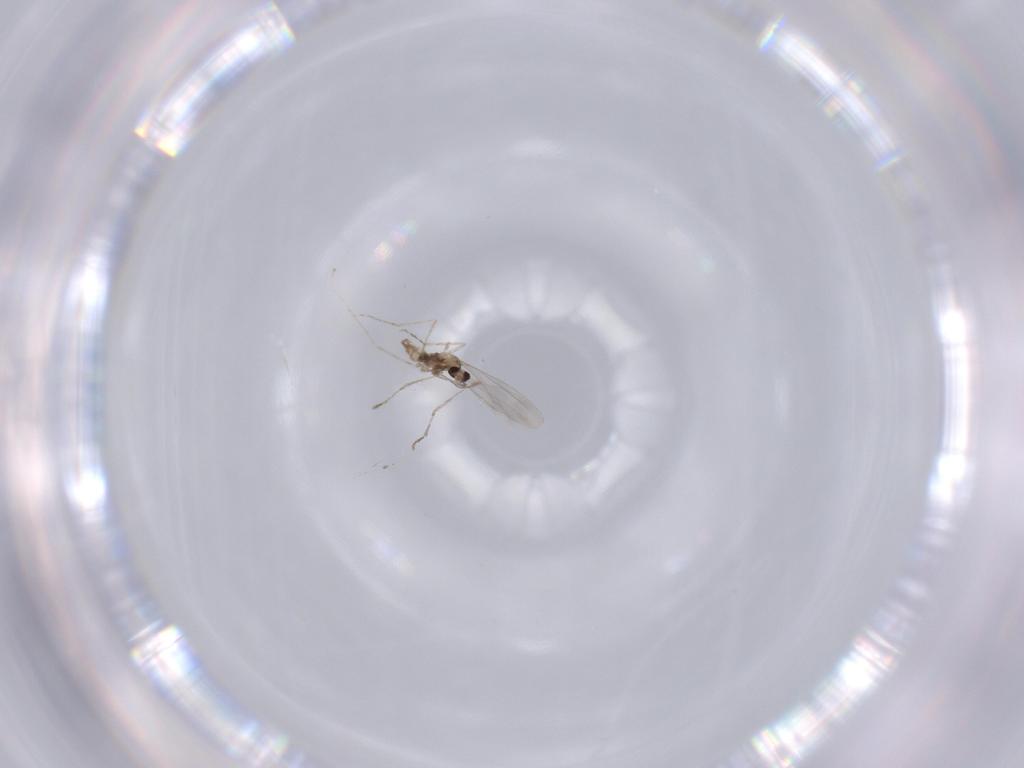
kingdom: Animalia
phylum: Arthropoda
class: Insecta
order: Diptera
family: Cecidomyiidae
